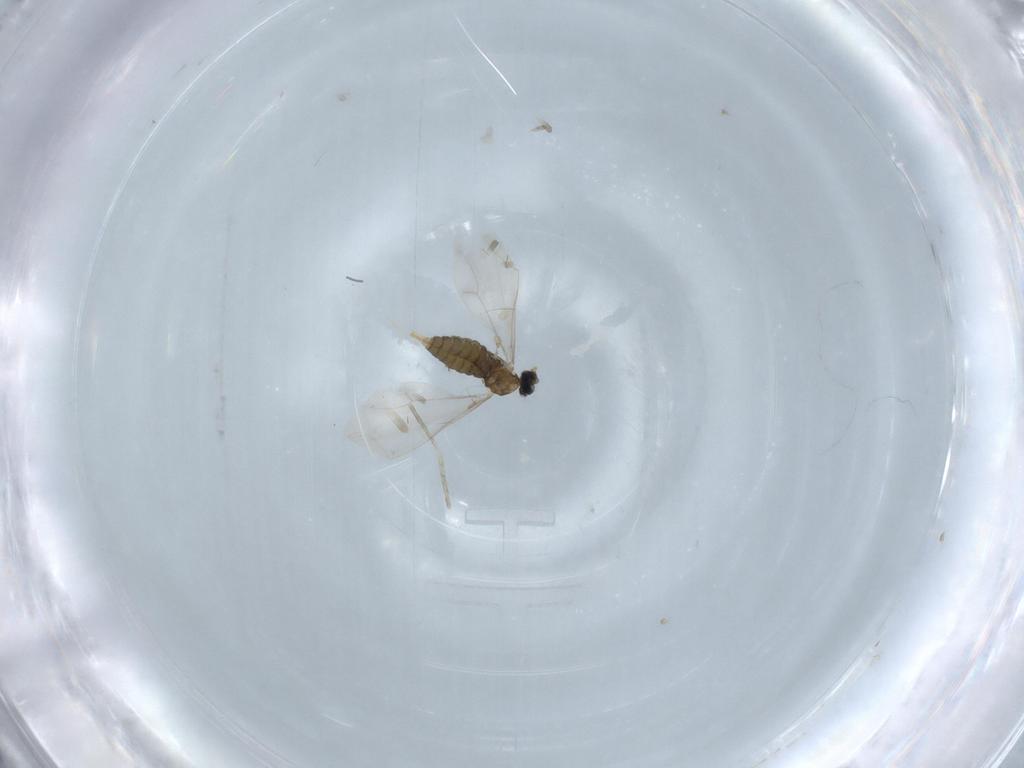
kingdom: Animalia
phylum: Arthropoda
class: Insecta
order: Diptera
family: Cecidomyiidae
